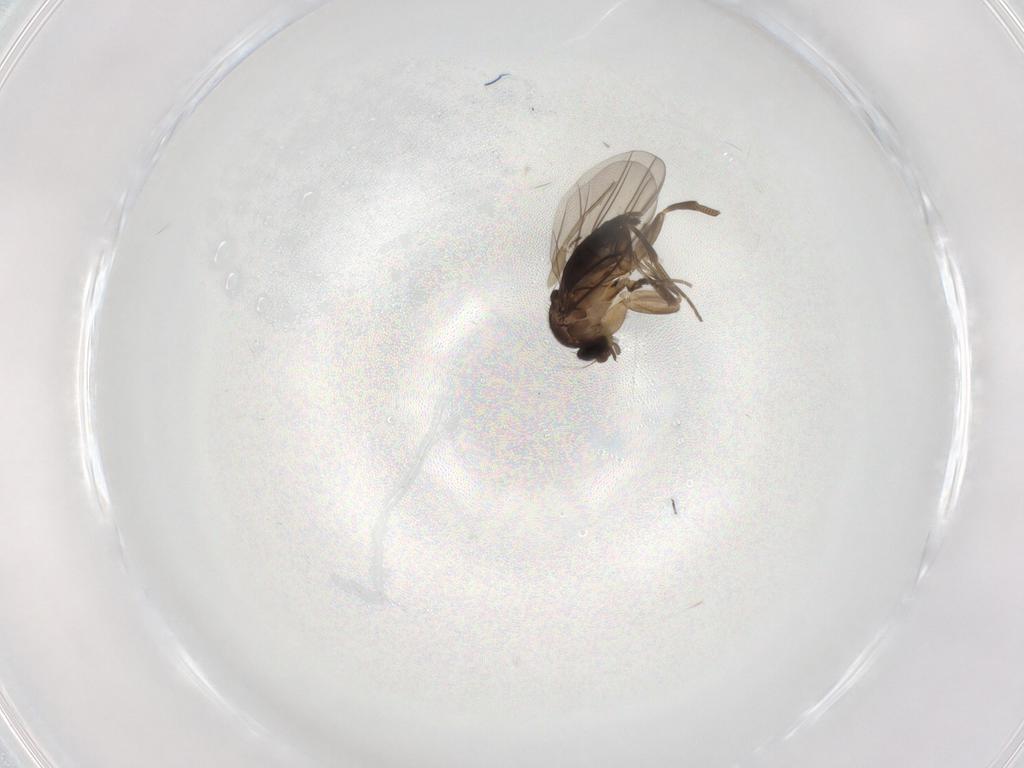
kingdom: Animalia
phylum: Arthropoda
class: Insecta
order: Diptera
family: Phoridae
